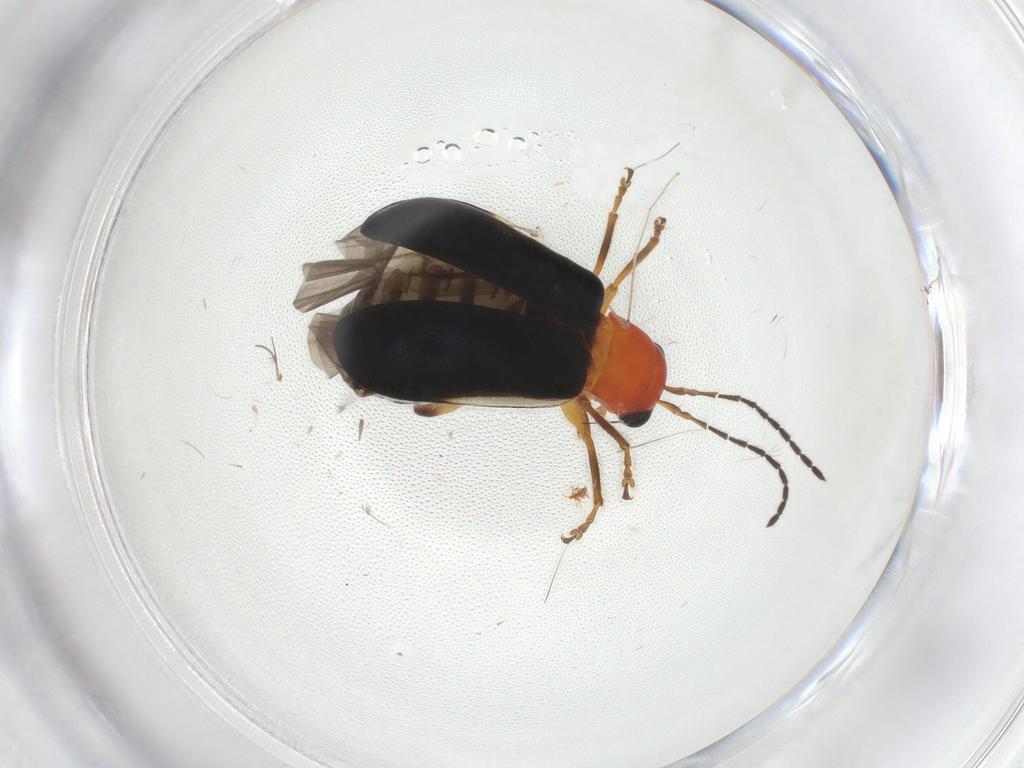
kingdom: Animalia
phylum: Arthropoda
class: Insecta
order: Coleoptera
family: Chrysomelidae
